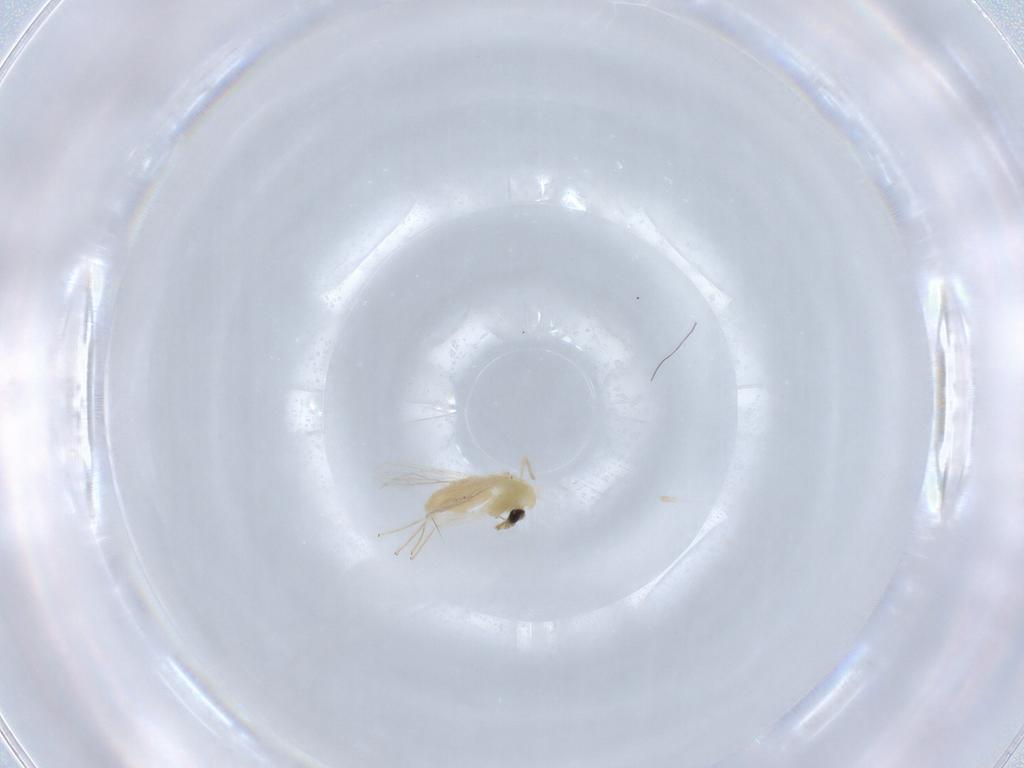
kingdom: Animalia
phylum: Arthropoda
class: Insecta
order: Diptera
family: Chironomidae
